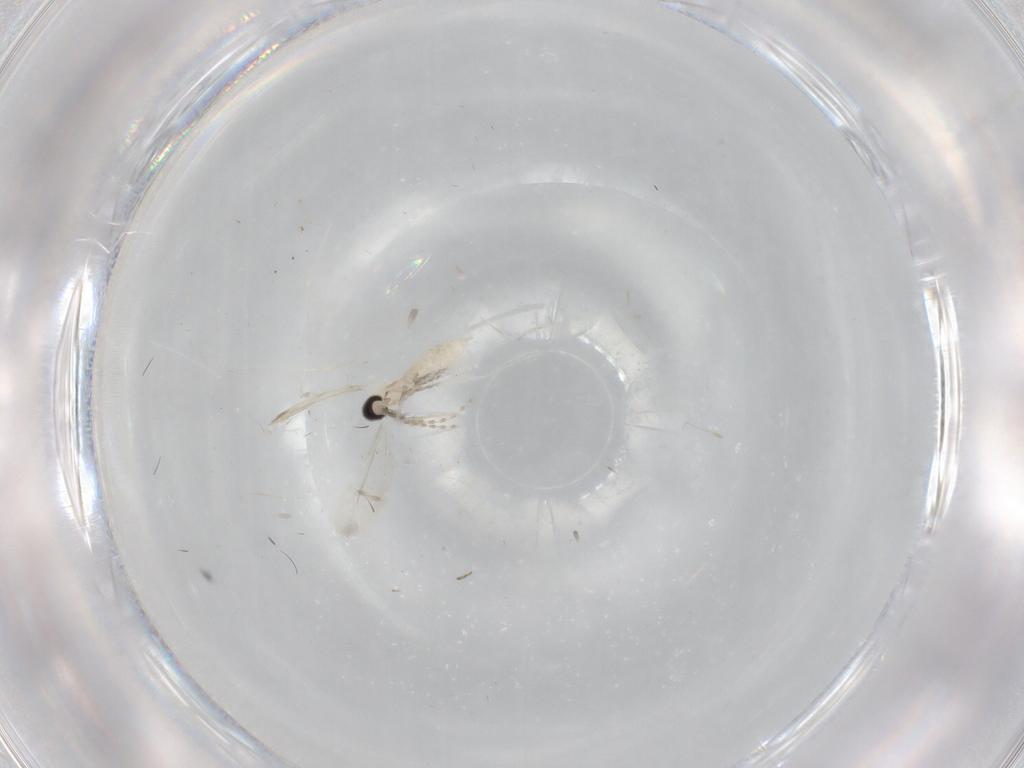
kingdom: Animalia
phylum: Arthropoda
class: Insecta
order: Diptera
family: Cecidomyiidae
